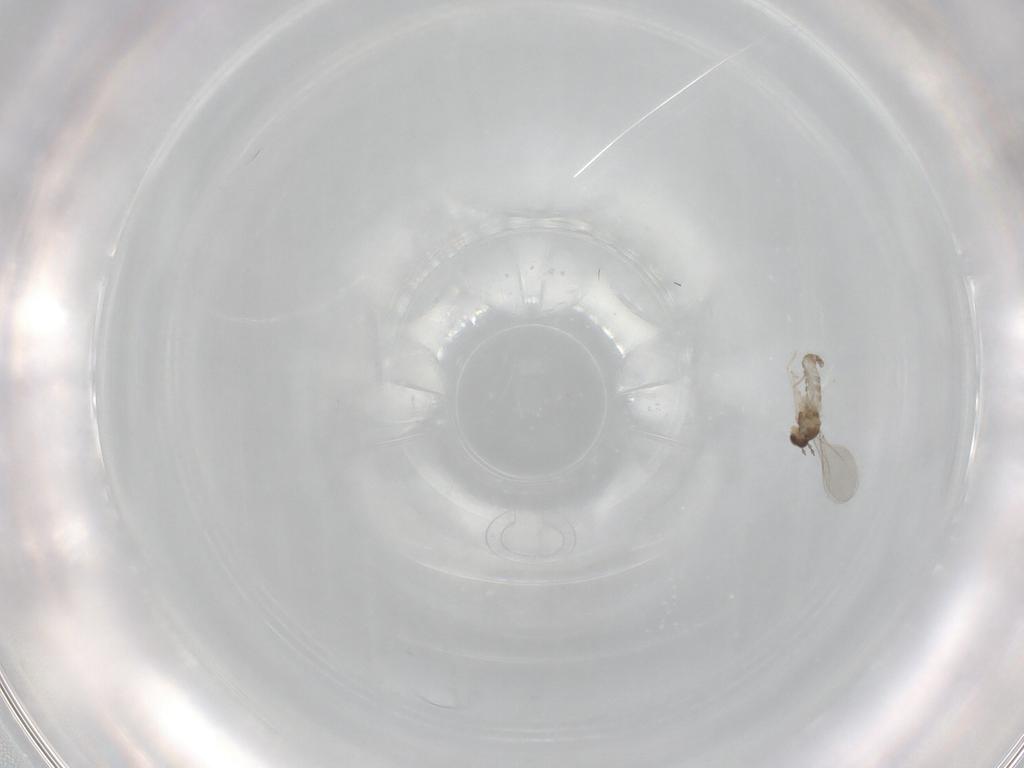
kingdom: Animalia
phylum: Arthropoda
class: Insecta
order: Diptera
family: Cecidomyiidae
